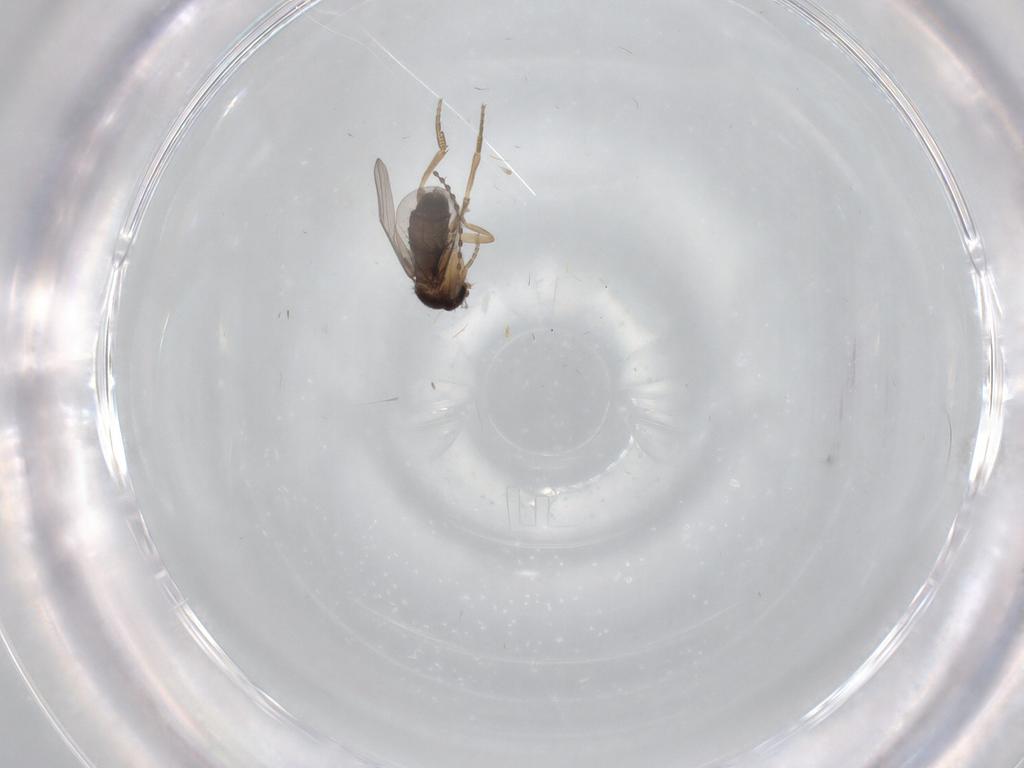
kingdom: Animalia
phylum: Arthropoda
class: Insecta
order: Diptera
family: Cecidomyiidae
